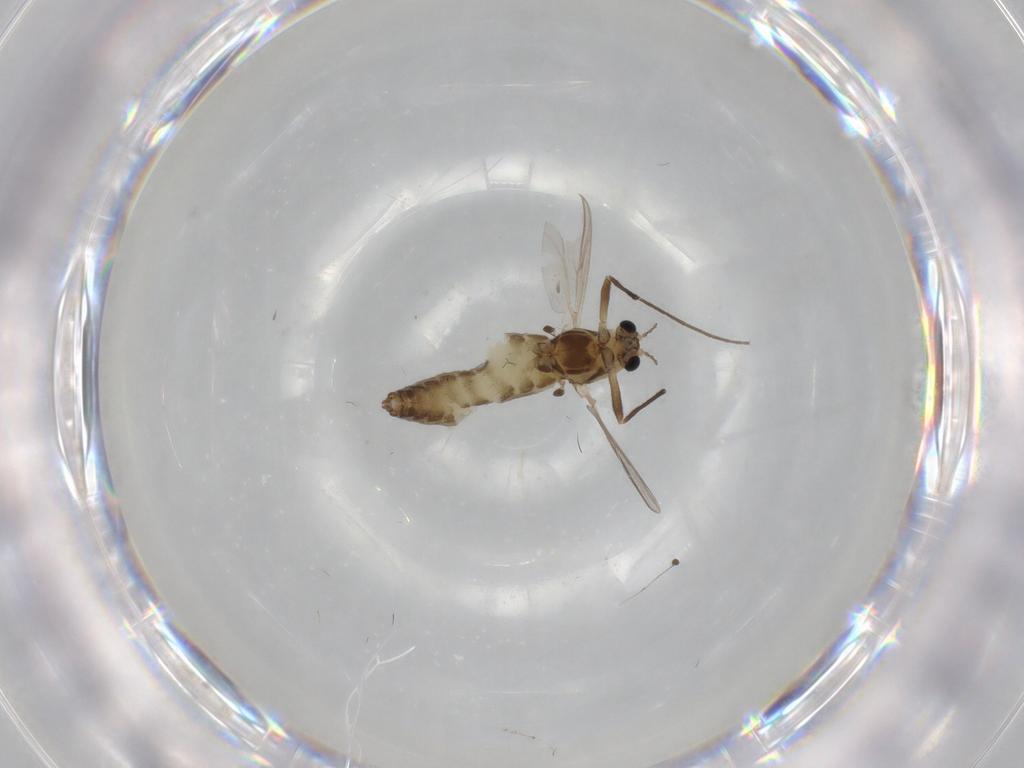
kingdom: Animalia
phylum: Arthropoda
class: Insecta
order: Diptera
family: Chironomidae
